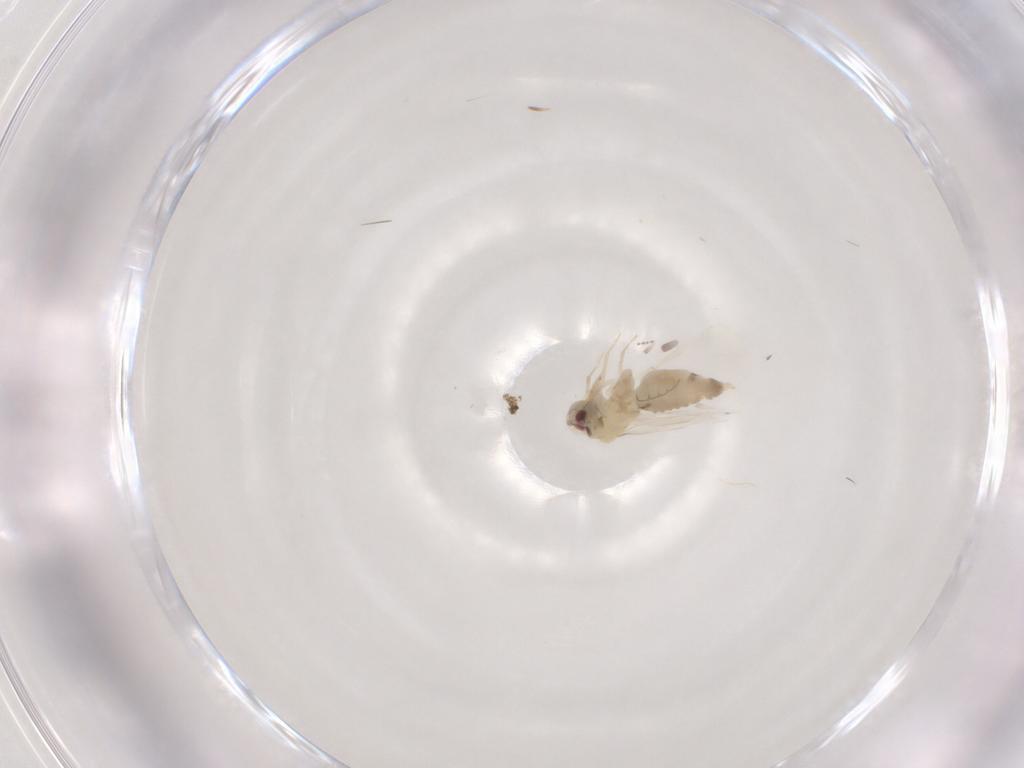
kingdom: Animalia
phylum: Arthropoda
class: Insecta
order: Hemiptera
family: Aleyrodidae
